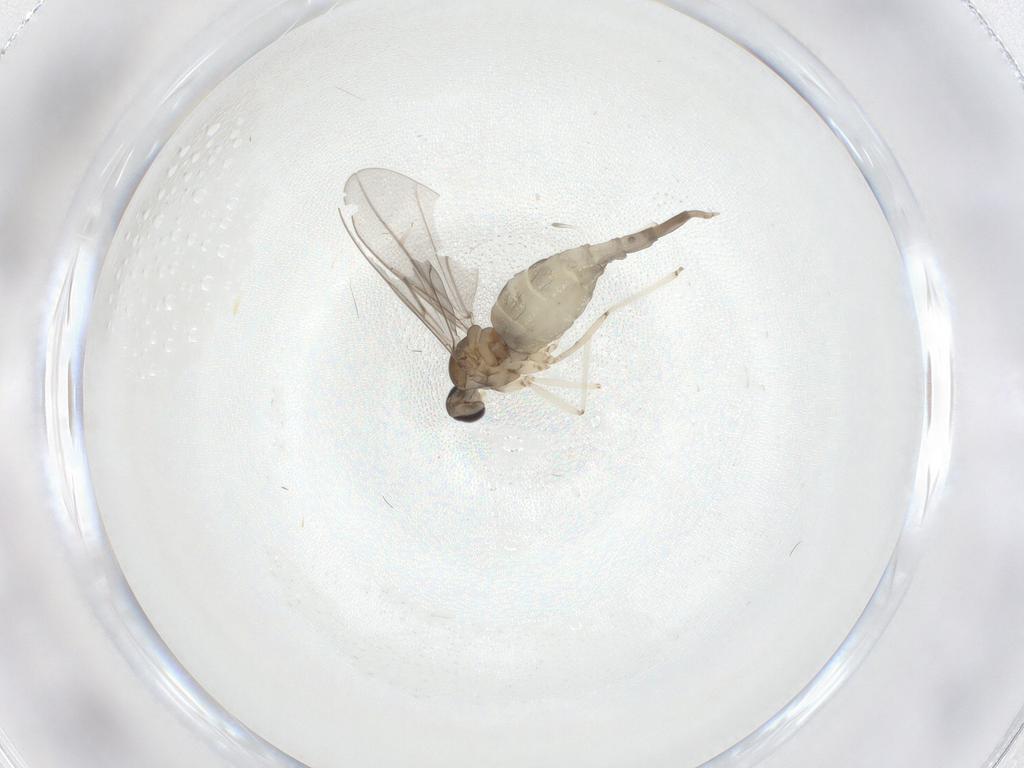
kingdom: Animalia
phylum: Arthropoda
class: Insecta
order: Diptera
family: Cecidomyiidae
